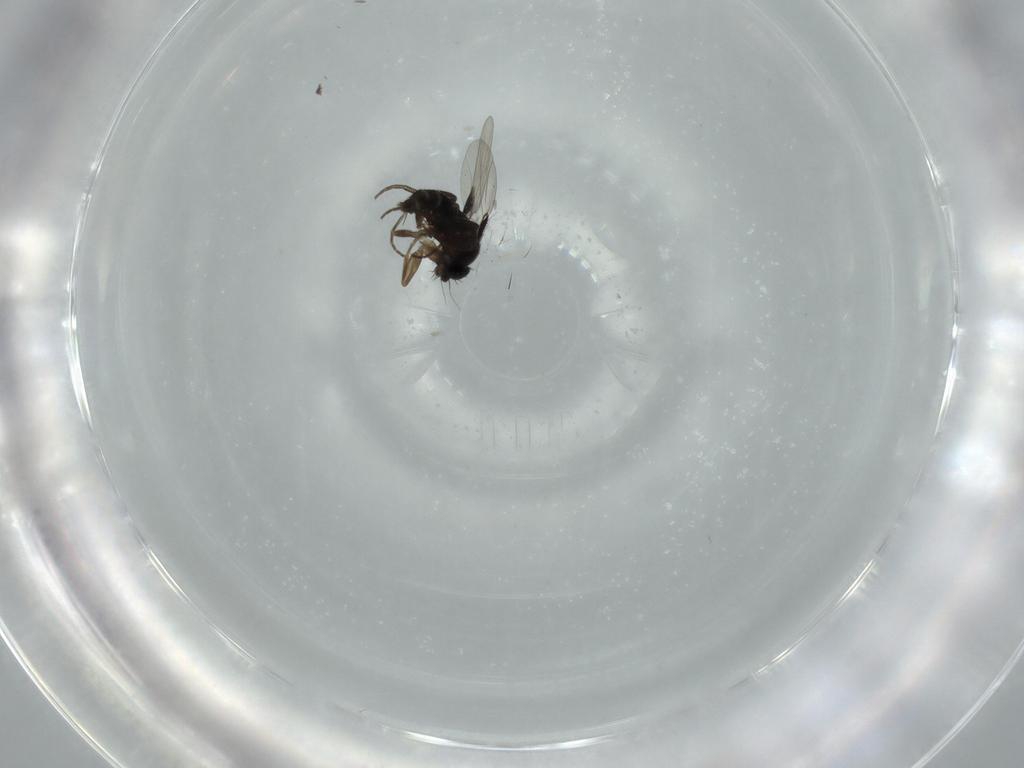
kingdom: Animalia
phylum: Arthropoda
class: Insecta
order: Diptera
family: Phoridae
